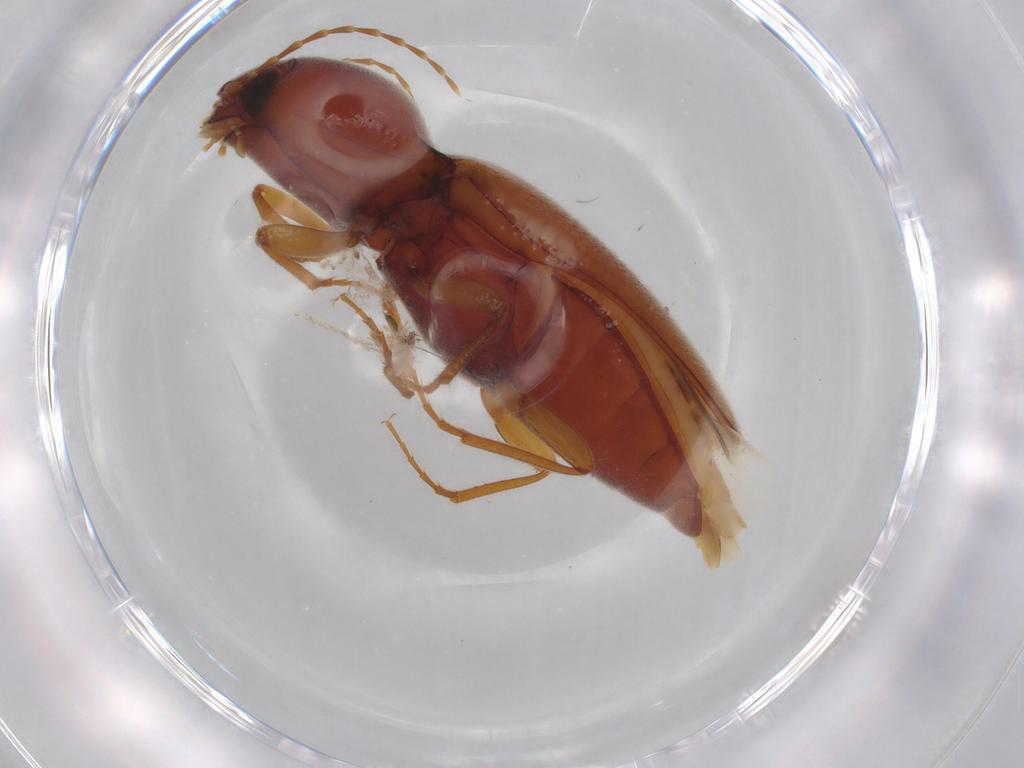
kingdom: Animalia
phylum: Arthropoda
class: Insecta
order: Coleoptera
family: Elateridae
